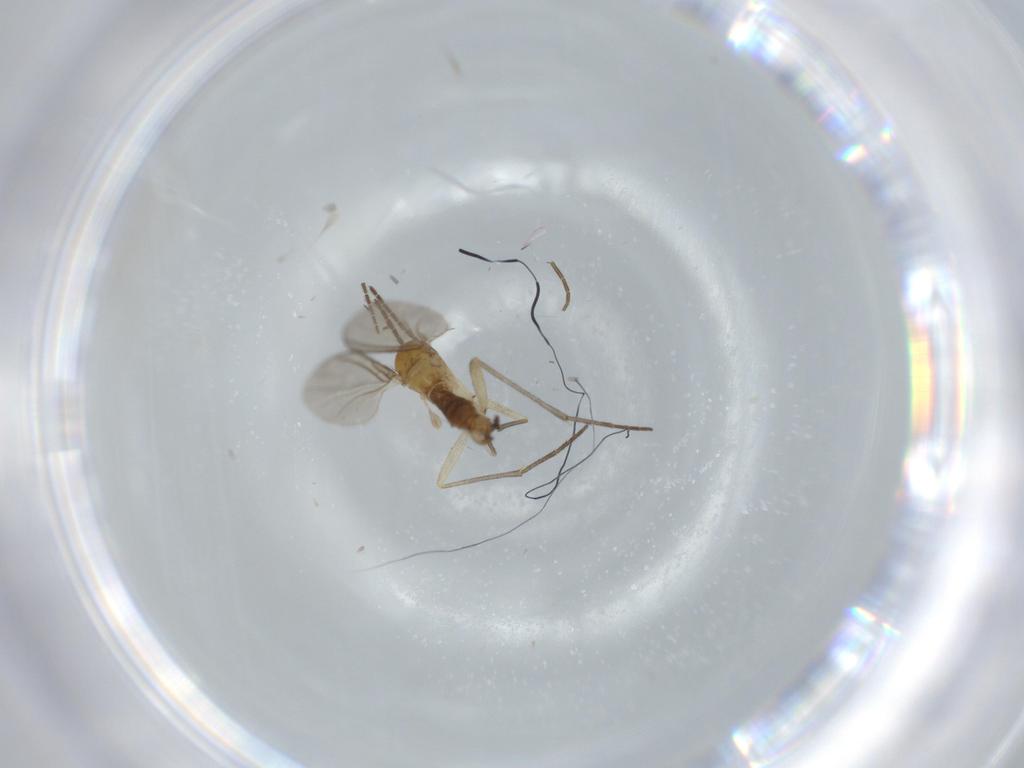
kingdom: Animalia
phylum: Arthropoda
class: Insecta
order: Diptera
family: Sciaridae
